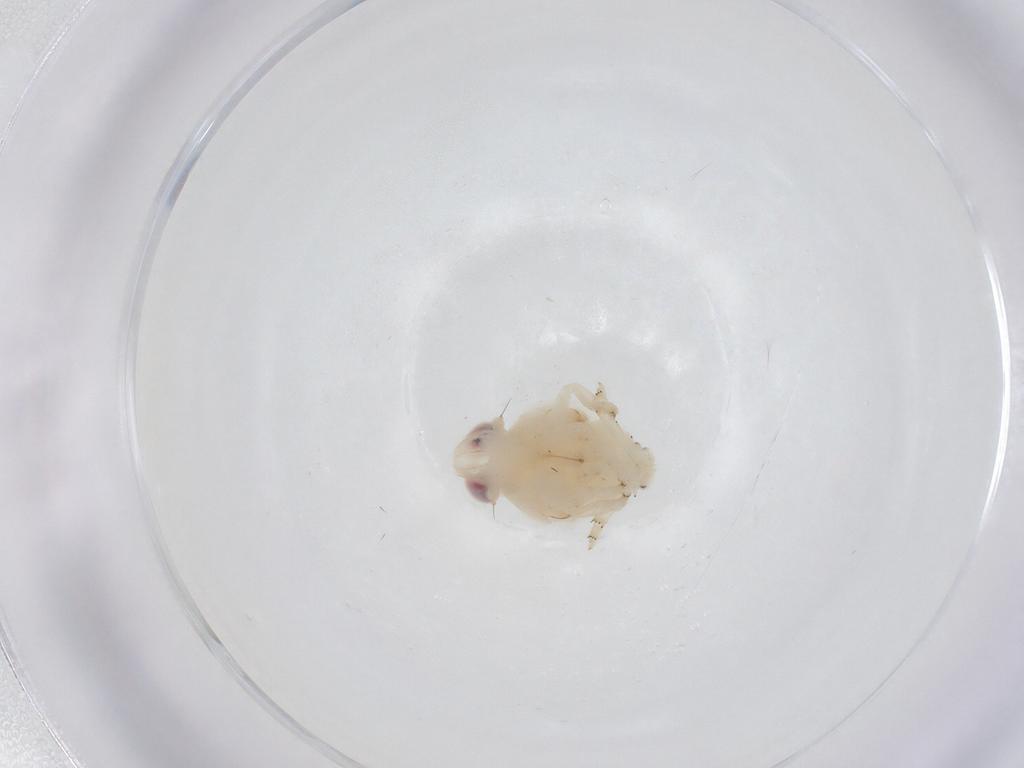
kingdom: Animalia
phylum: Arthropoda
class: Insecta
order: Hemiptera
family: Nogodinidae
